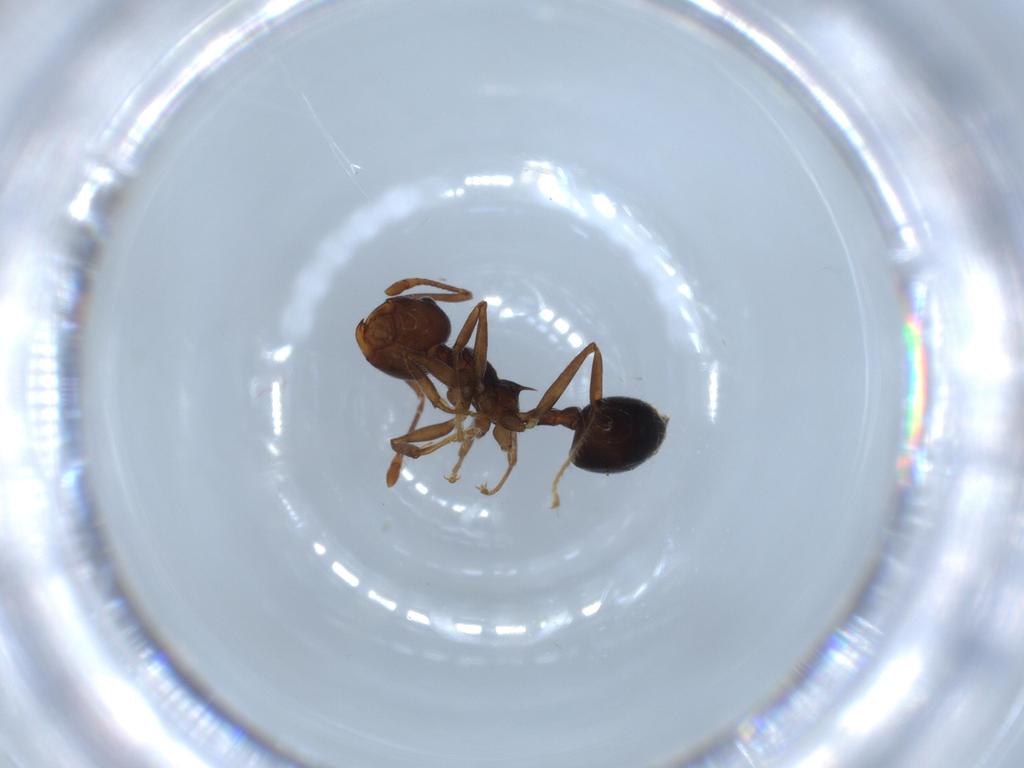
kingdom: Animalia
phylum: Arthropoda
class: Insecta
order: Hymenoptera
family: Formicidae
